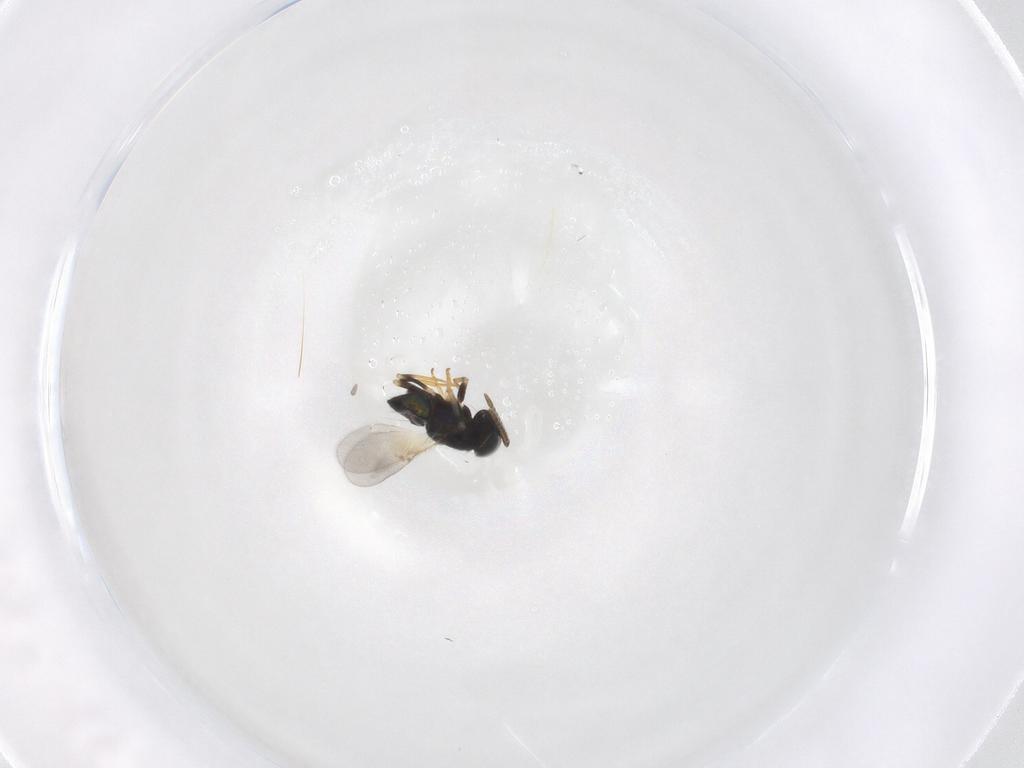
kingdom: Animalia
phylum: Arthropoda
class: Insecta
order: Hymenoptera
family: Encyrtidae
